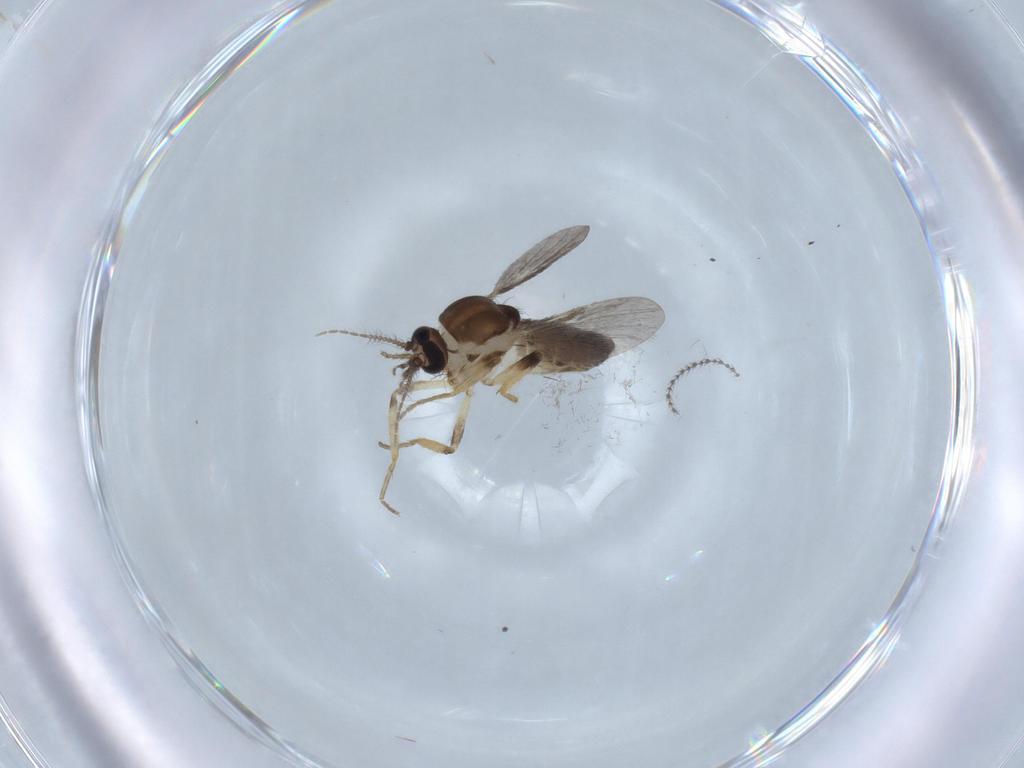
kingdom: Animalia
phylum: Arthropoda
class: Insecta
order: Diptera
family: Ceratopogonidae
